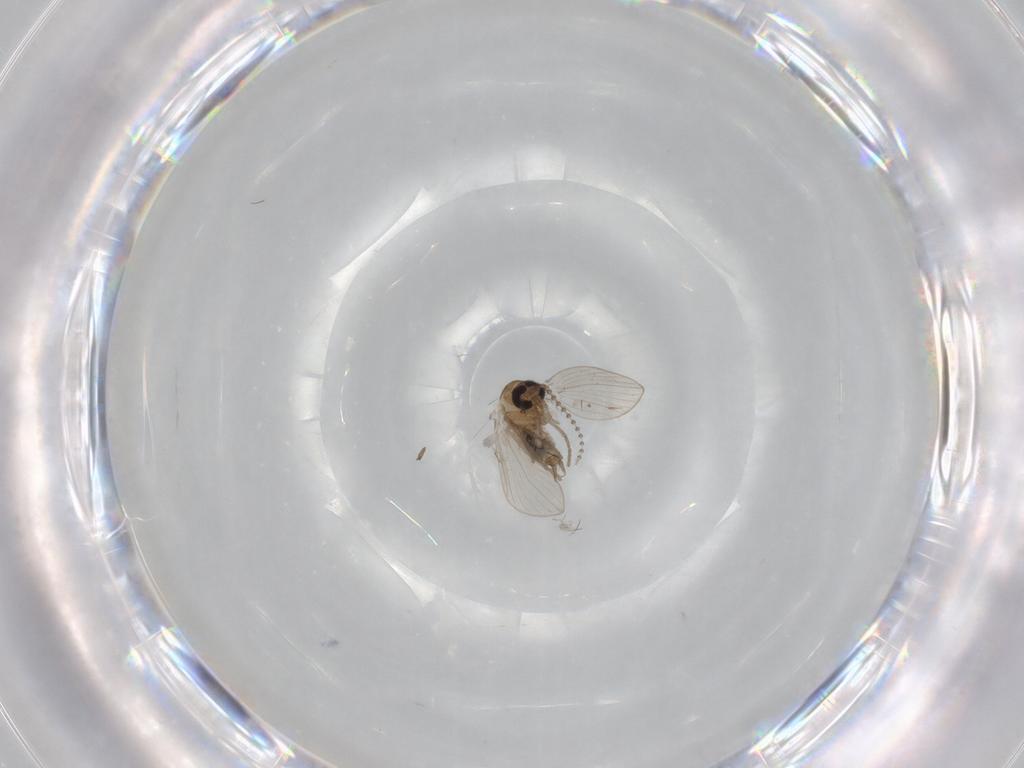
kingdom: Animalia
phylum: Arthropoda
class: Insecta
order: Diptera
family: Psychodidae
